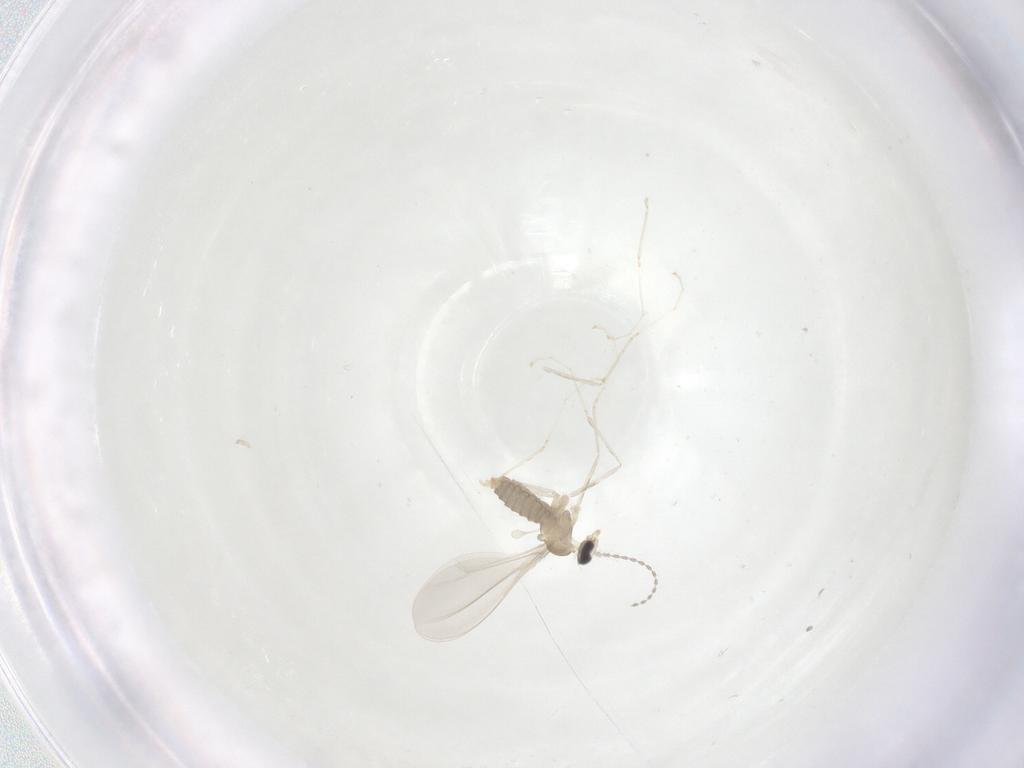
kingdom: Animalia
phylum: Arthropoda
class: Insecta
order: Diptera
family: Cecidomyiidae
